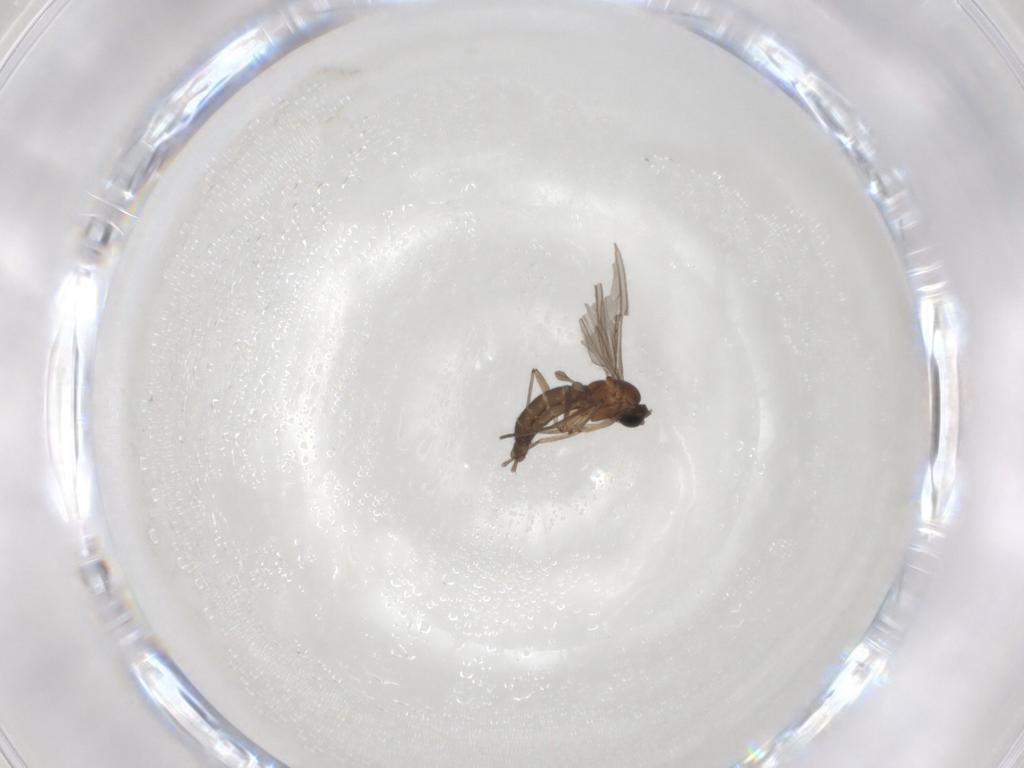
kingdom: Animalia
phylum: Arthropoda
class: Insecta
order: Diptera
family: Sciaridae
